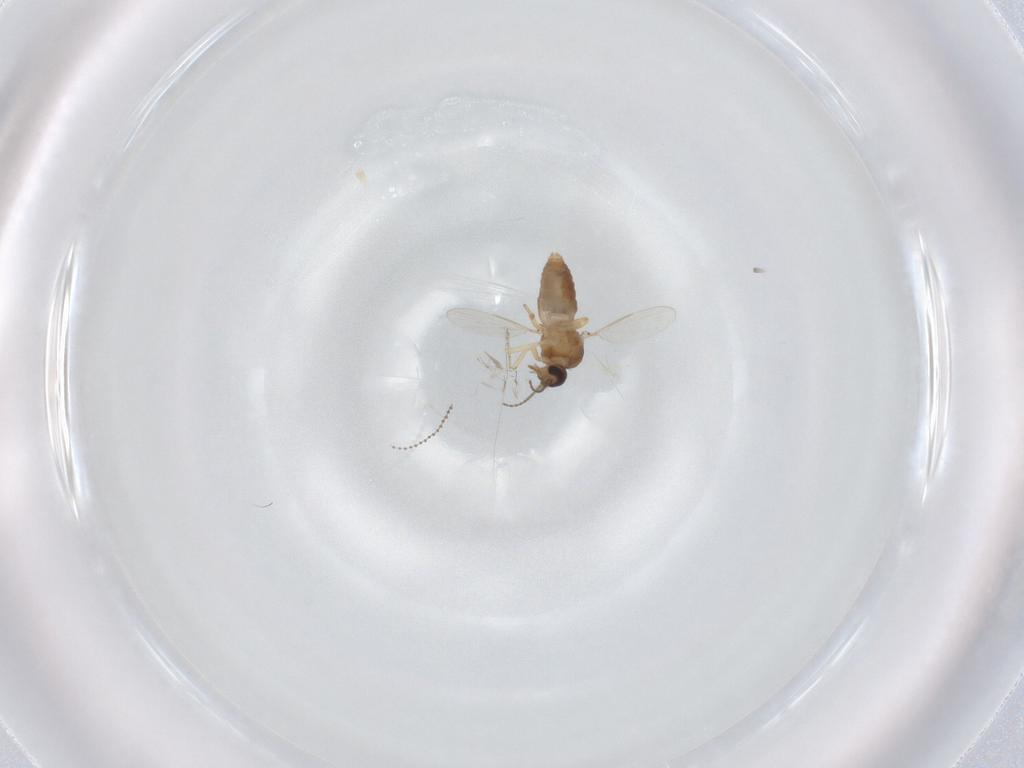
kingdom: Animalia
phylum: Arthropoda
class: Insecta
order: Diptera
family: Ceratopogonidae
